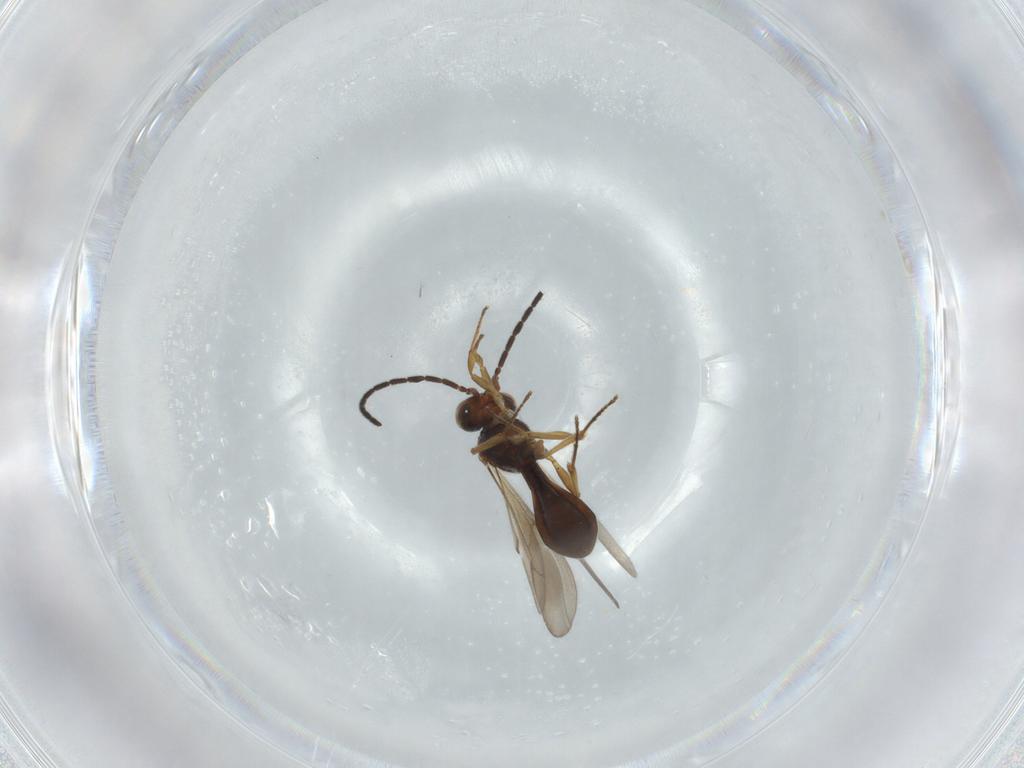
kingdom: Animalia
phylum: Arthropoda
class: Insecta
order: Hymenoptera
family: Scelionidae
